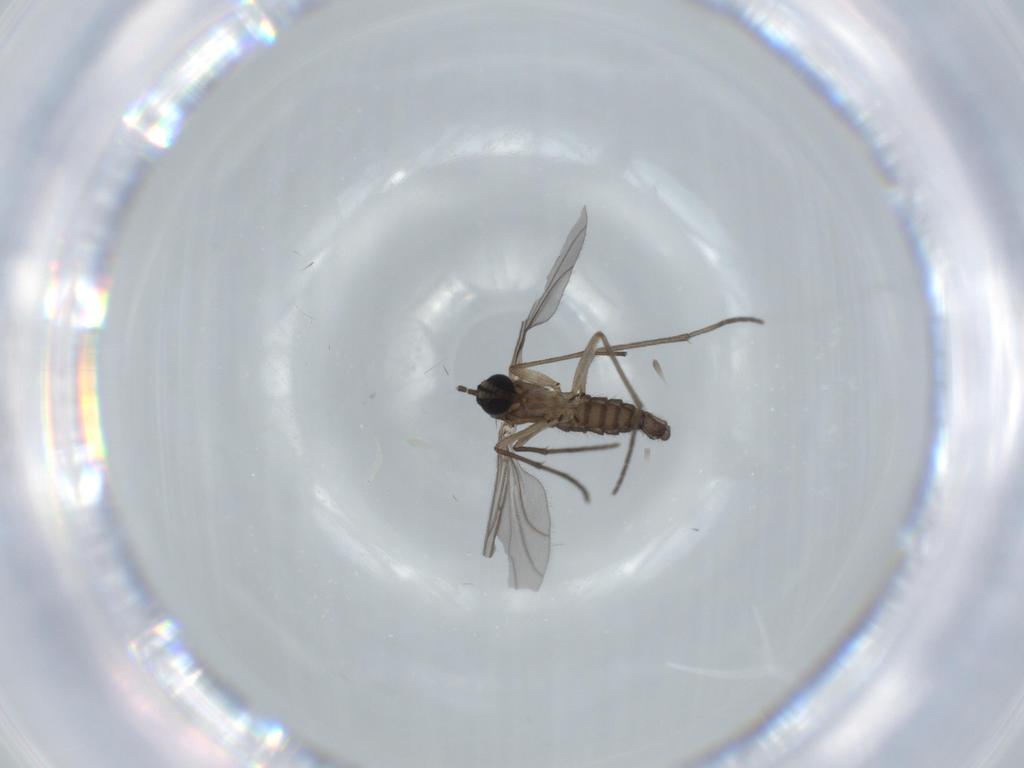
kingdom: Animalia
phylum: Arthropoda
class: Insecta
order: Diptera
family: Sciaridae
